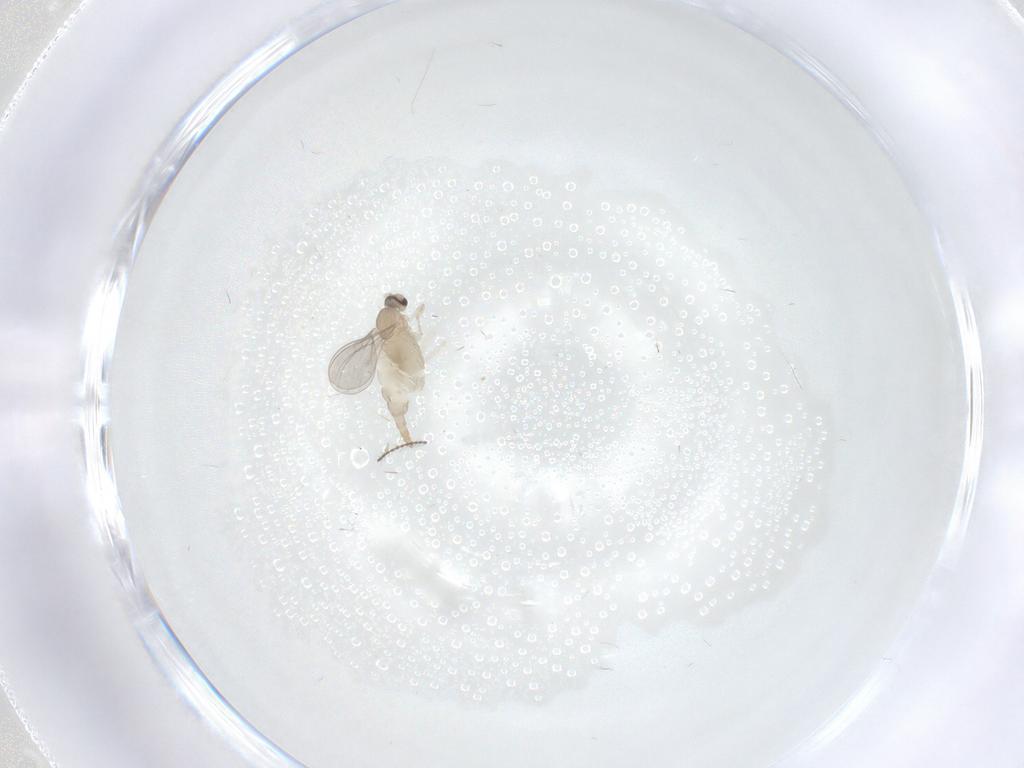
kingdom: Animalia
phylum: Arthropoda
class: Insecta
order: Diptera
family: Cecidomyiidae
